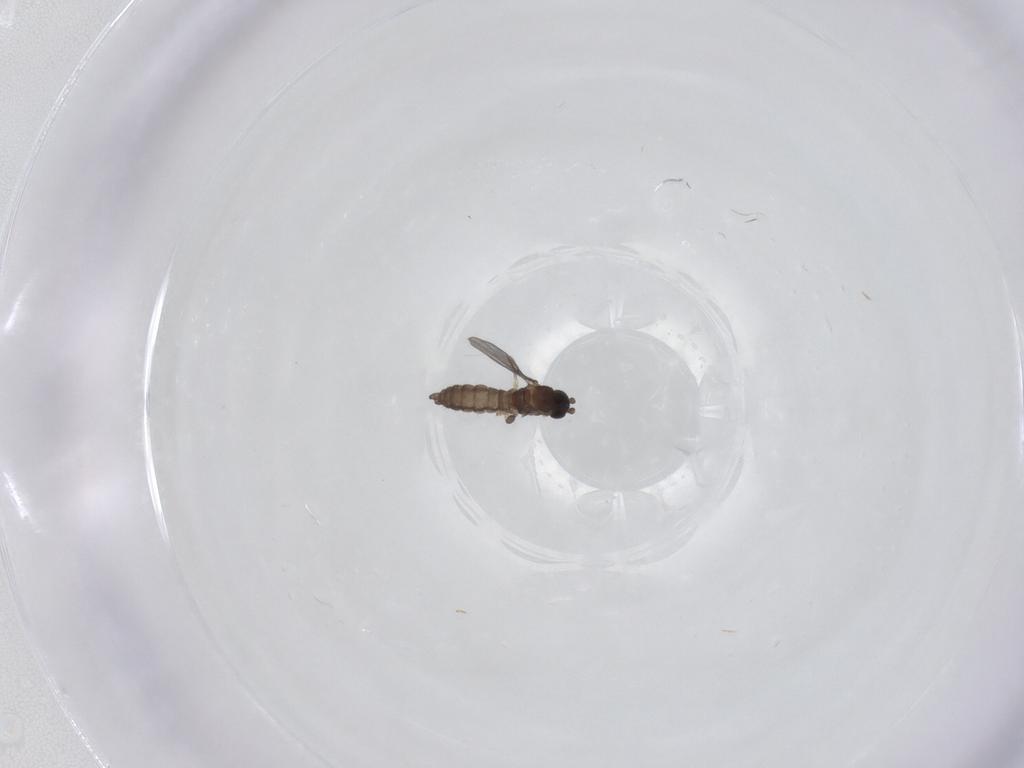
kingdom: Animalia
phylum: Arthropoda
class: Insecta
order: Diptera
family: Sciaridae
